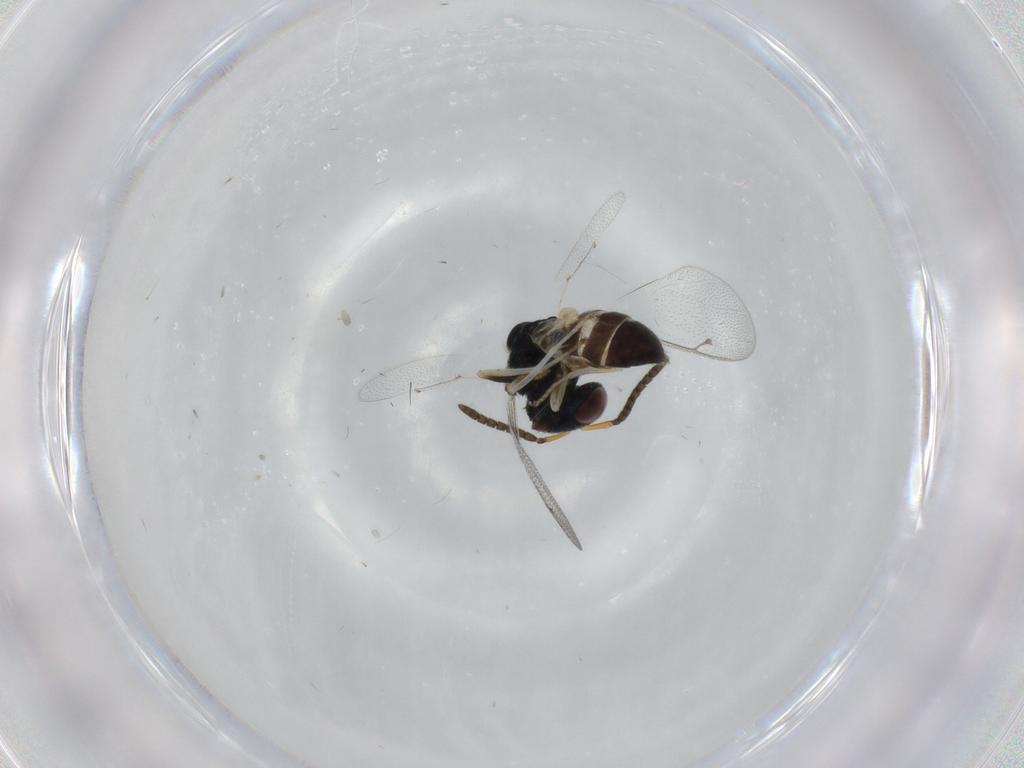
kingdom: Animalia
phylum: Arthropoda
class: Insecta
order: Hymenoptera
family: Pteromalidae
